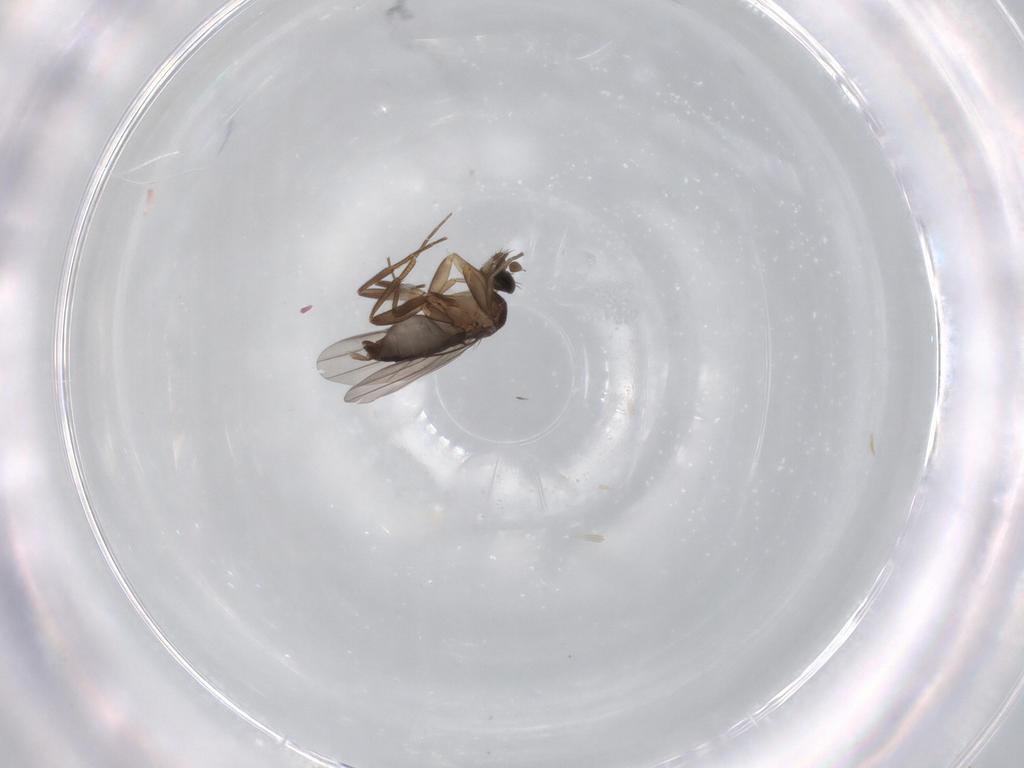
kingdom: Animalia
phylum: Arthropoda
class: Insecta
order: Diptera
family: Phoridae
